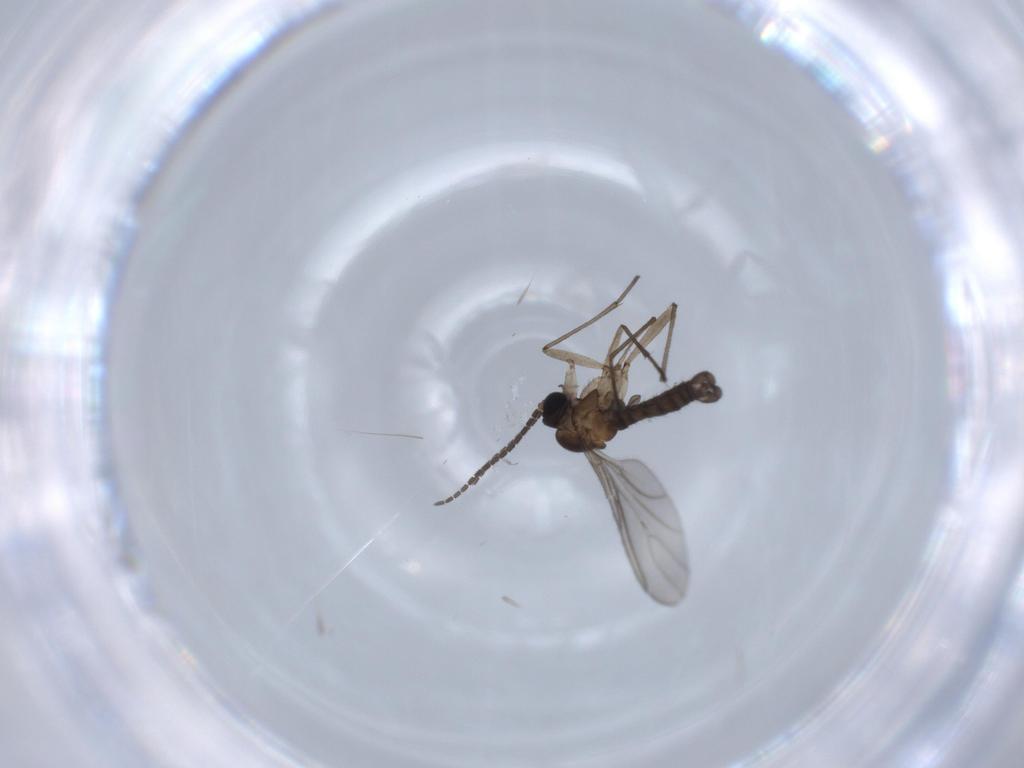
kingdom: Animalia
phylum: Arthropoda
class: Insecta
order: Diptera
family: Sciaridae
